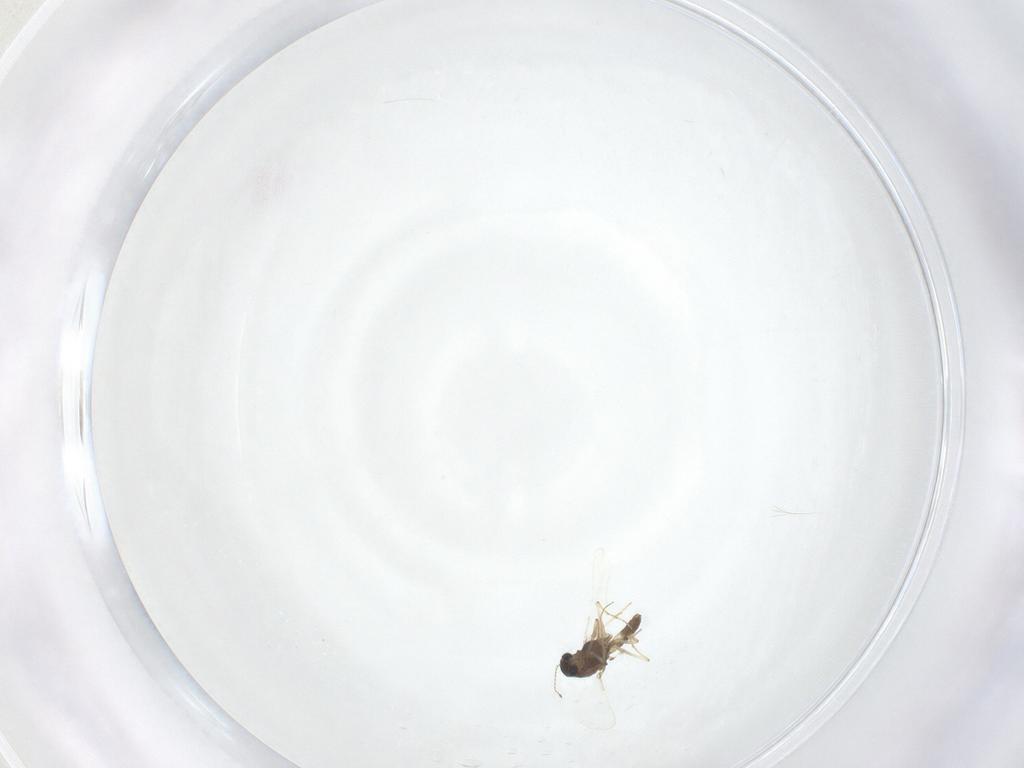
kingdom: Animalia
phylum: Arthropoda
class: Insecta
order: Diptera
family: Chironomidae
